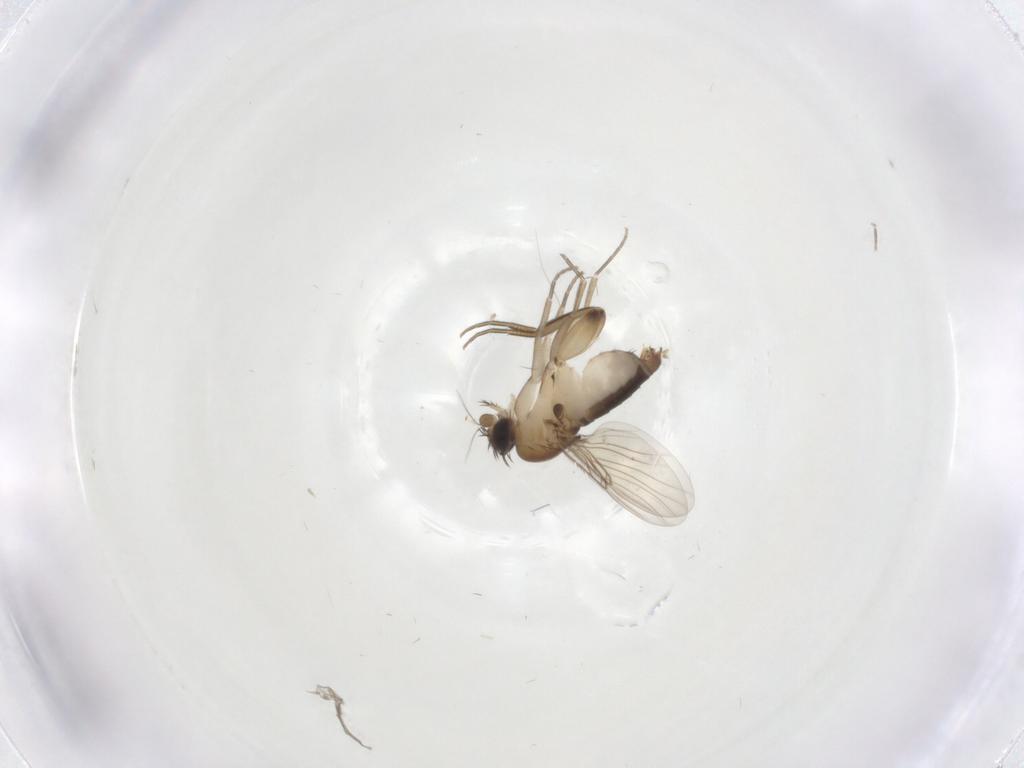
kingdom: Animalia
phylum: Arthropoda
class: Insecta
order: Diptera
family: Phoridae
